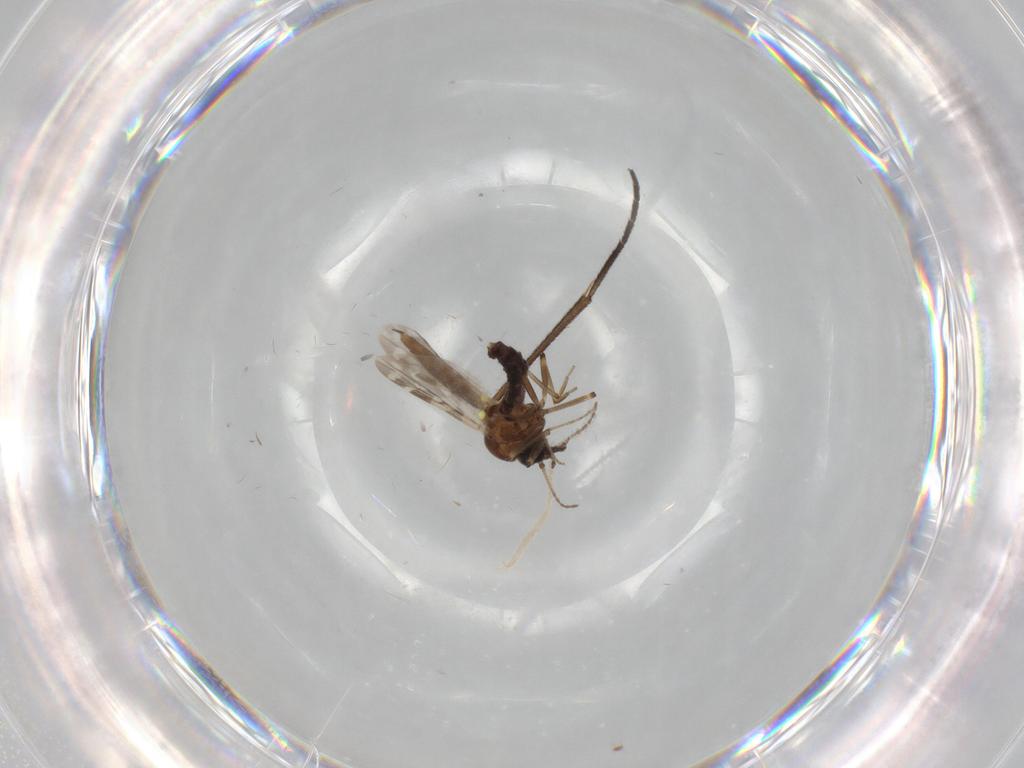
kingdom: Animalia
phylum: Arthropoda
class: Insecta
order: Diptera
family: Sciaridae
